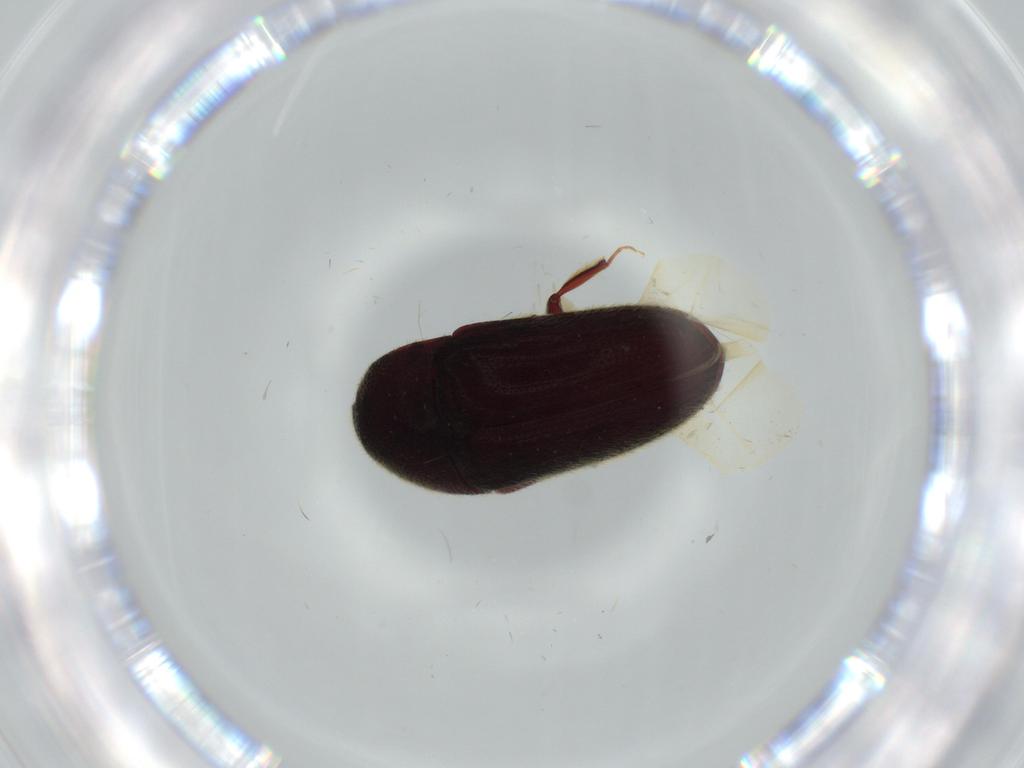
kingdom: Animalia
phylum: Arthropoda
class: Insecta
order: Coleoptera
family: Throscidae
